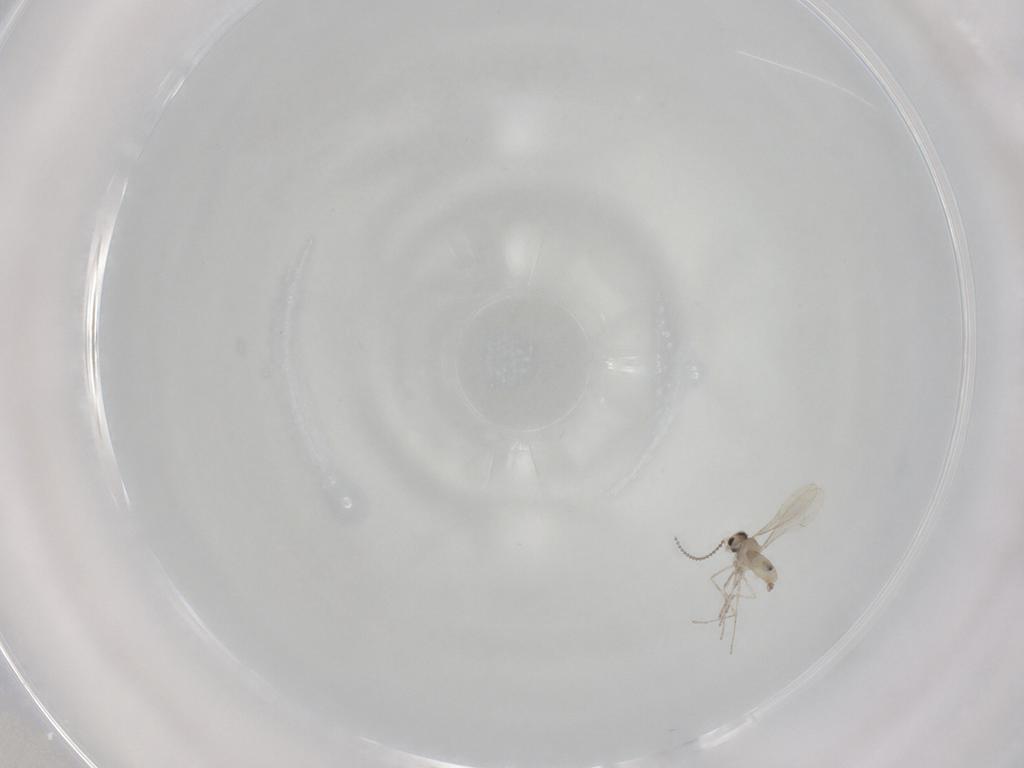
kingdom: Animalia
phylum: Arthropoda
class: Insecta
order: Diptera
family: Cecidomyiidae
